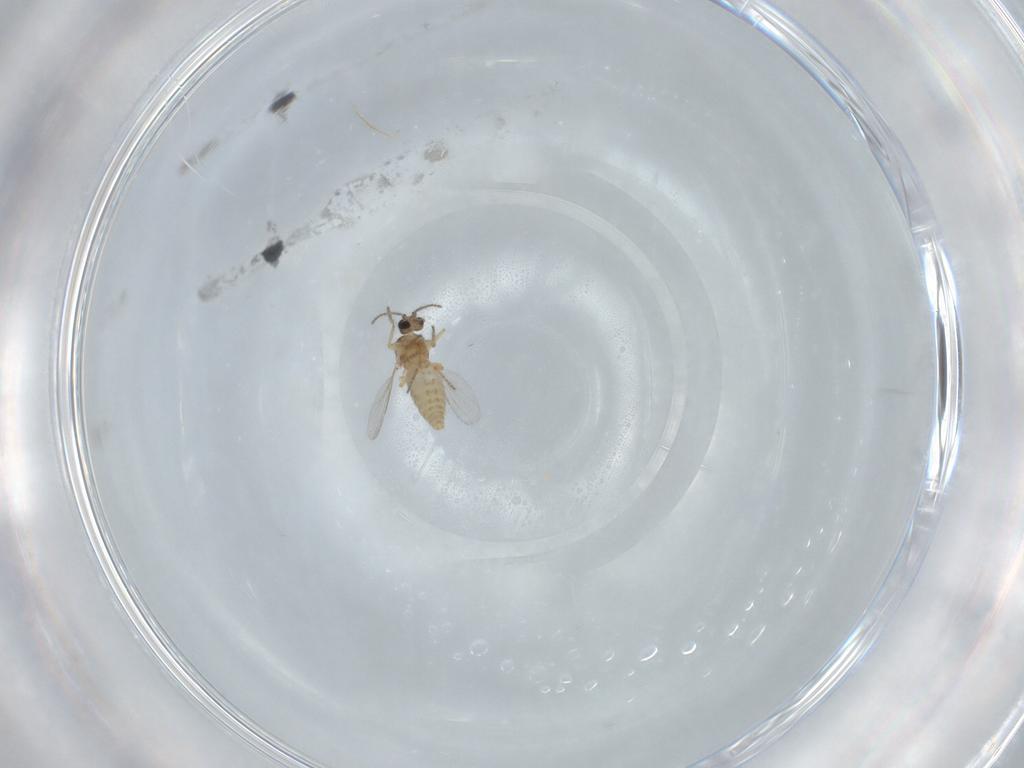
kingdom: Animalia
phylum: Arthropoda
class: Insecta
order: Diptera
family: Ceratopogonidae
